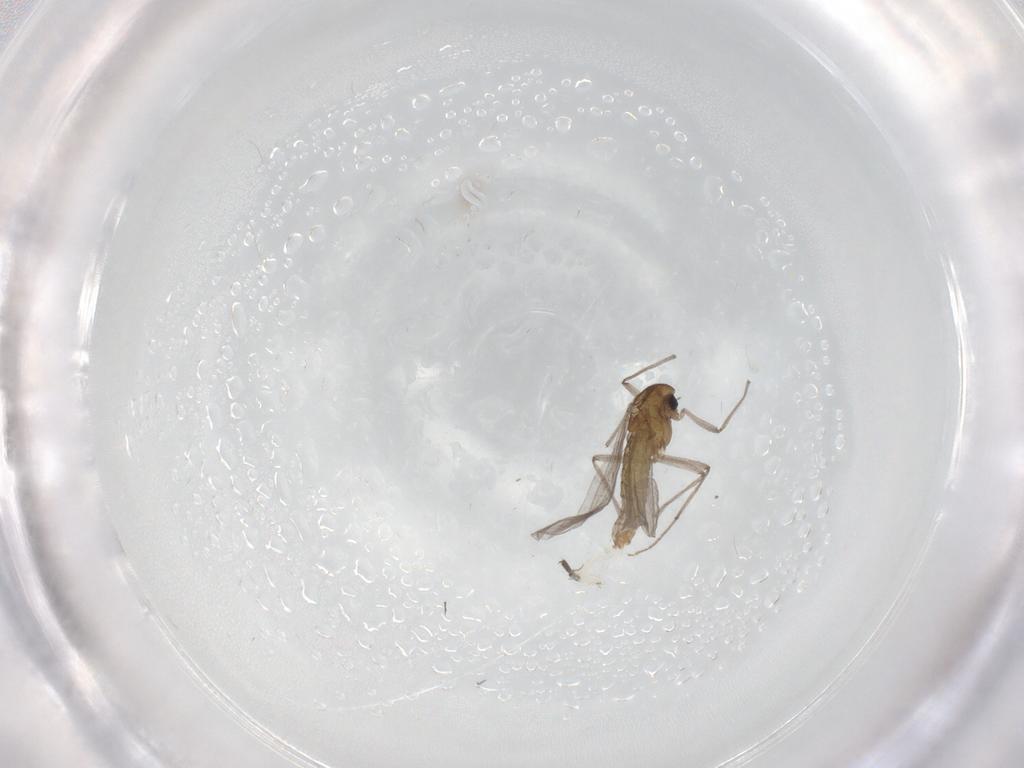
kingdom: Animalia
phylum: Arthropoda
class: Insecta
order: Diptera
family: Chironomidae
